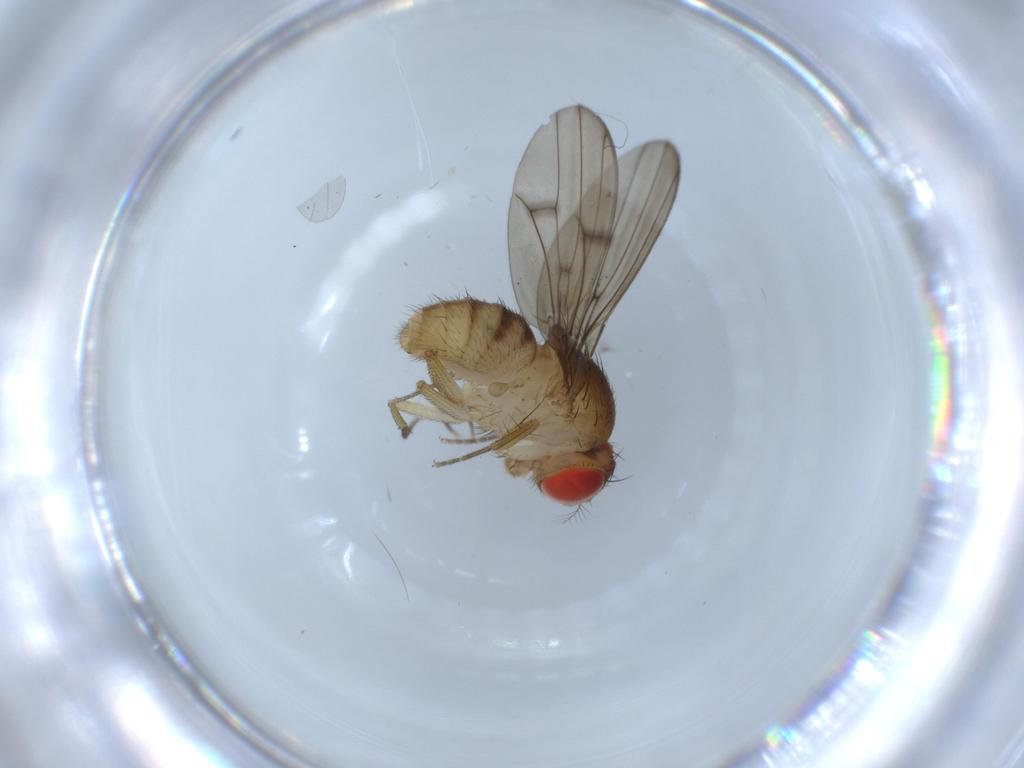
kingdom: Animalia
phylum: Arthropoda
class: Insecta
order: Diptera
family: Drosophilidae
